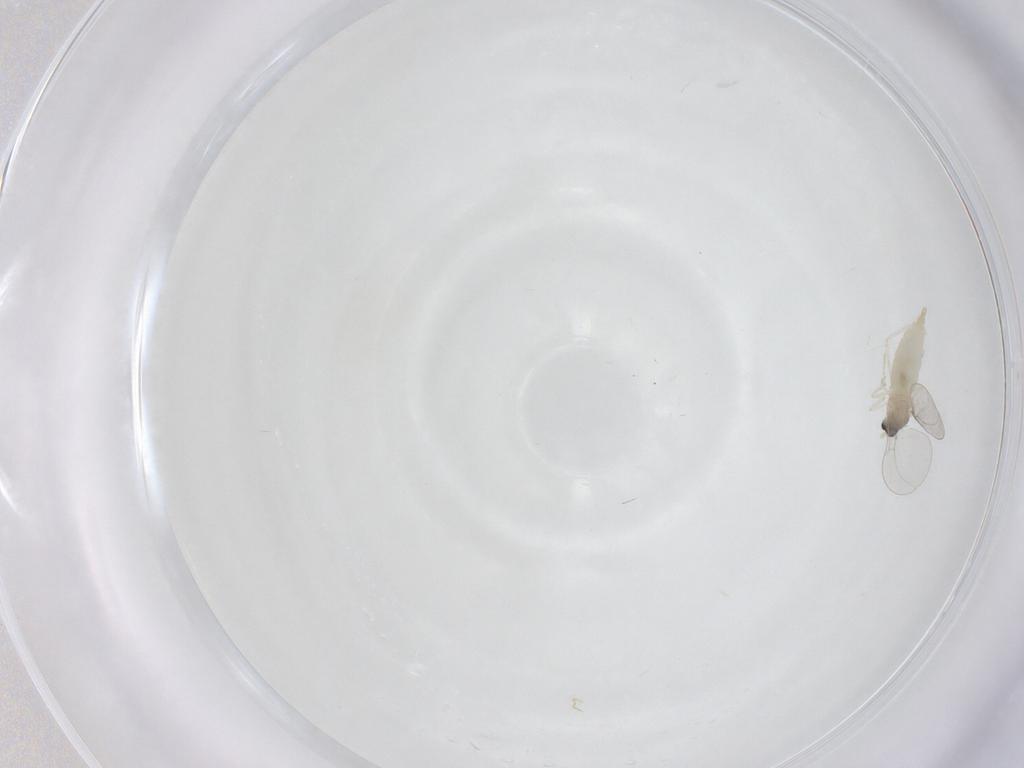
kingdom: Animalia
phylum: Arthropoda
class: Insecta
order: Diptera
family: Cecidomyiidae
